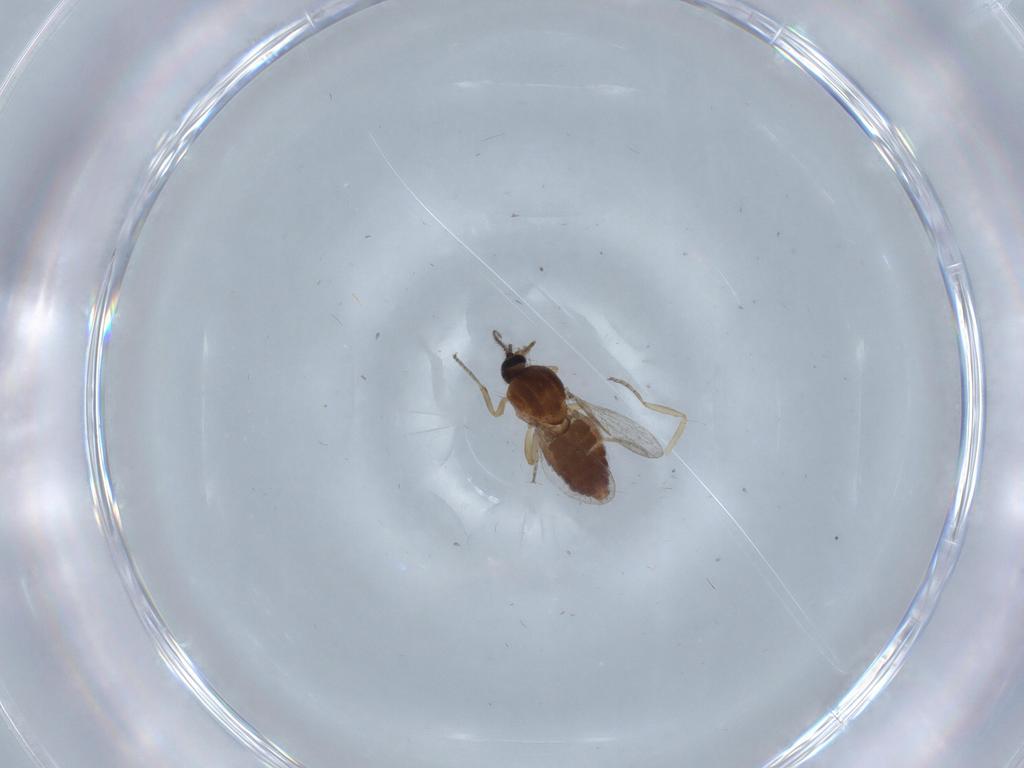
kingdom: Animalia
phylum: Arthropoda
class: Insecta
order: Diptera
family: Ceratopogonidae
